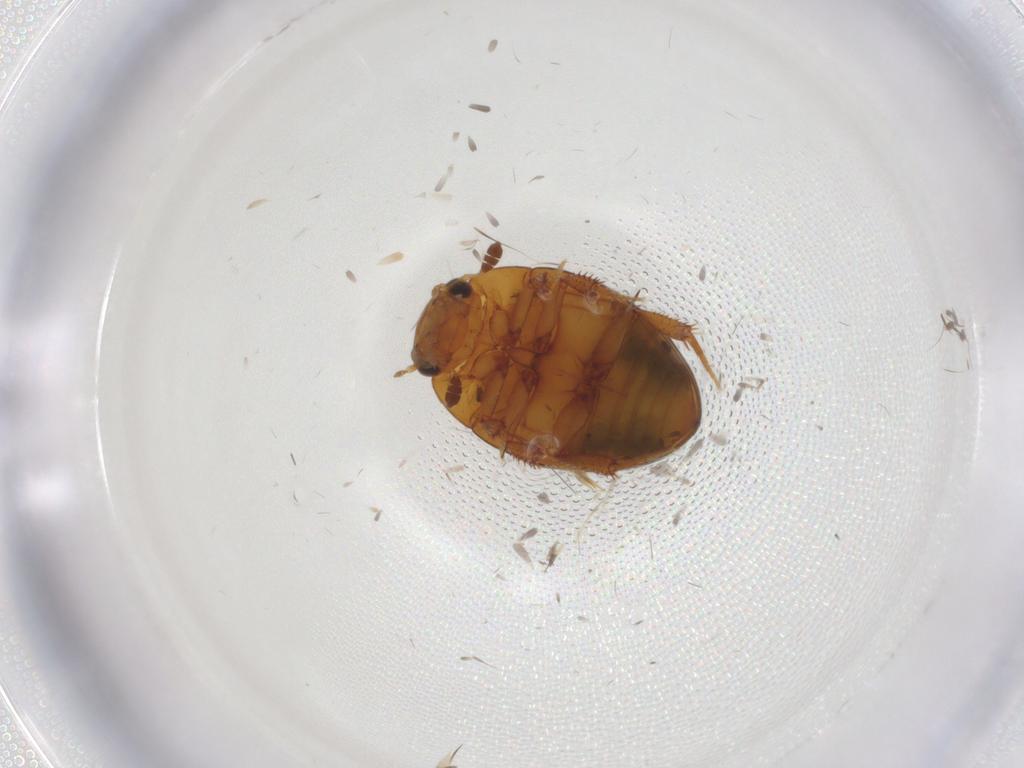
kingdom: Animalia
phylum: Arthropoda
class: Insecta
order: Coleoptera
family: Hydrophilidae
